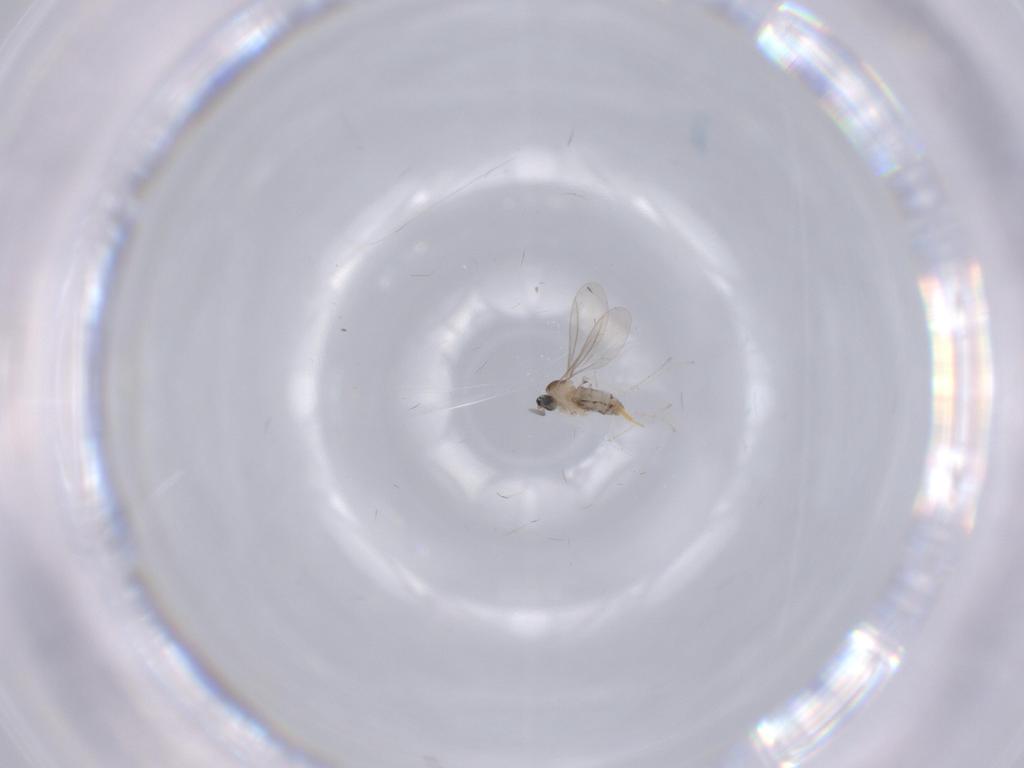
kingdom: Animalia
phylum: Arthropoda
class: Insecta
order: Diptera
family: Cecidomyiidae
